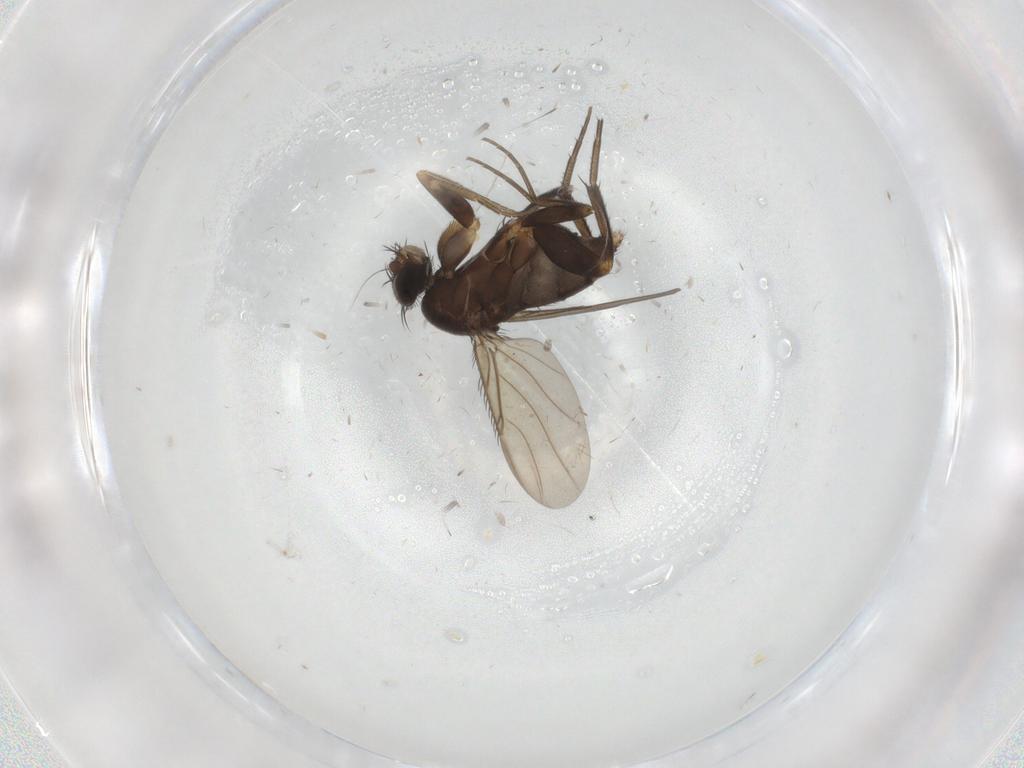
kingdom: Animalia
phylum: Arthropoda
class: Insecta
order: Diptera
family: Phoridae
